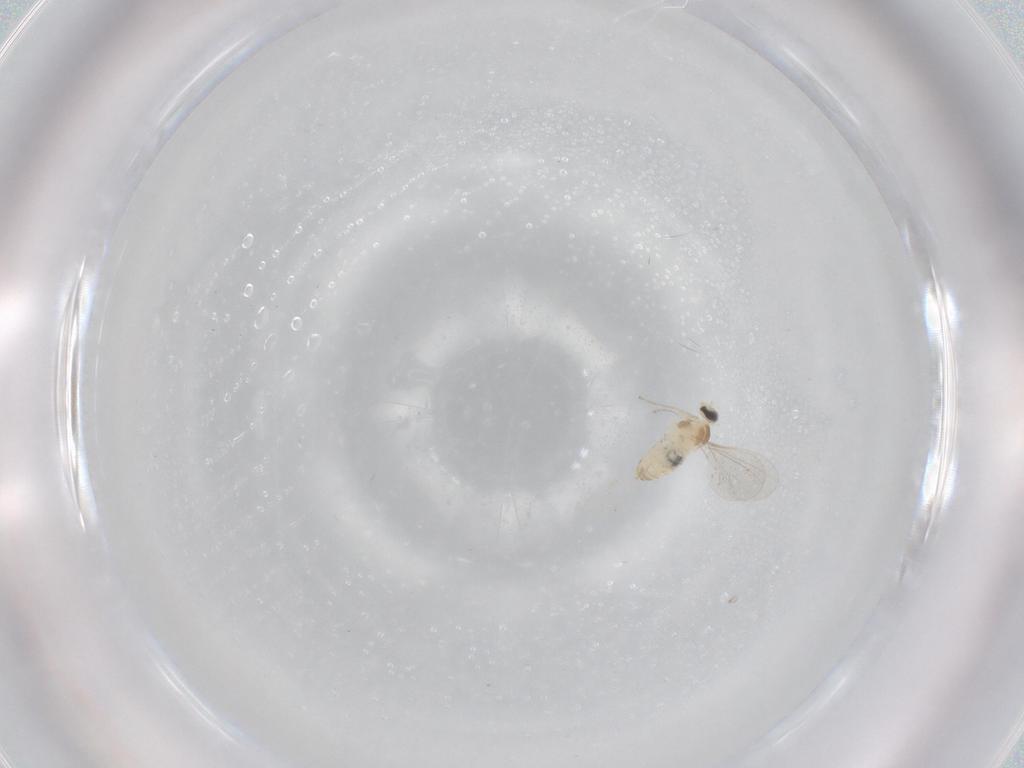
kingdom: Animalia
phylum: Arthropoda
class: Insecta
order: Diptera
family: Cecidomyiidae
